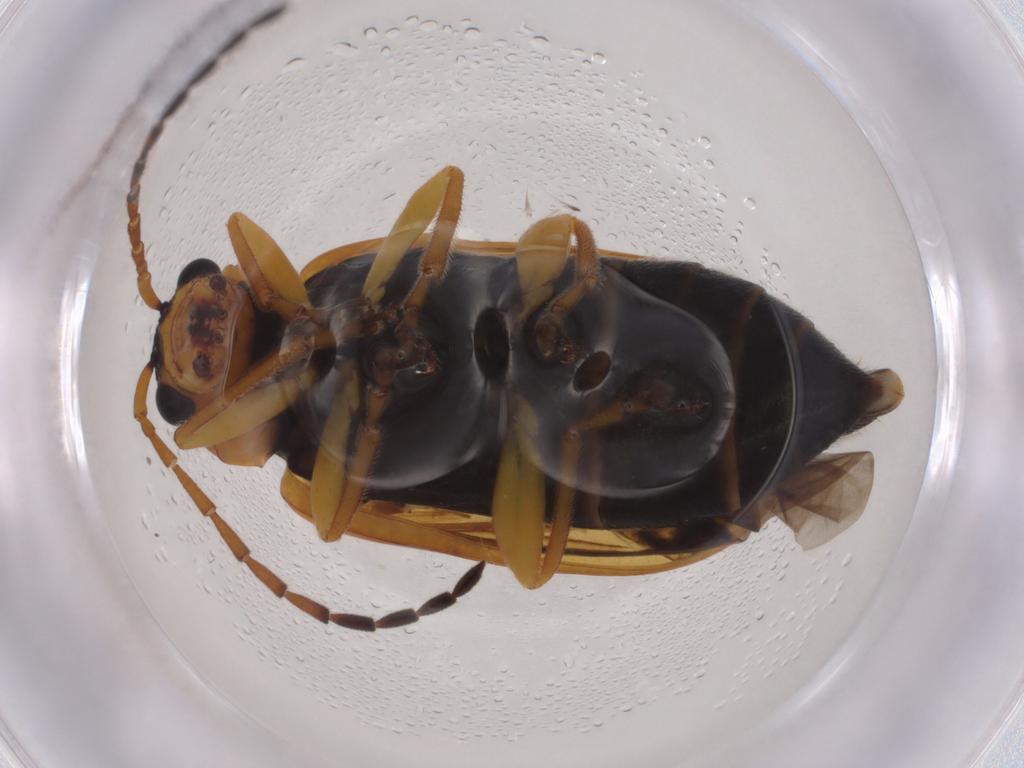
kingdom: Animalia
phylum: Arthropoda
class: Insecta
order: Coleoptera
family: Chrysomelidae
